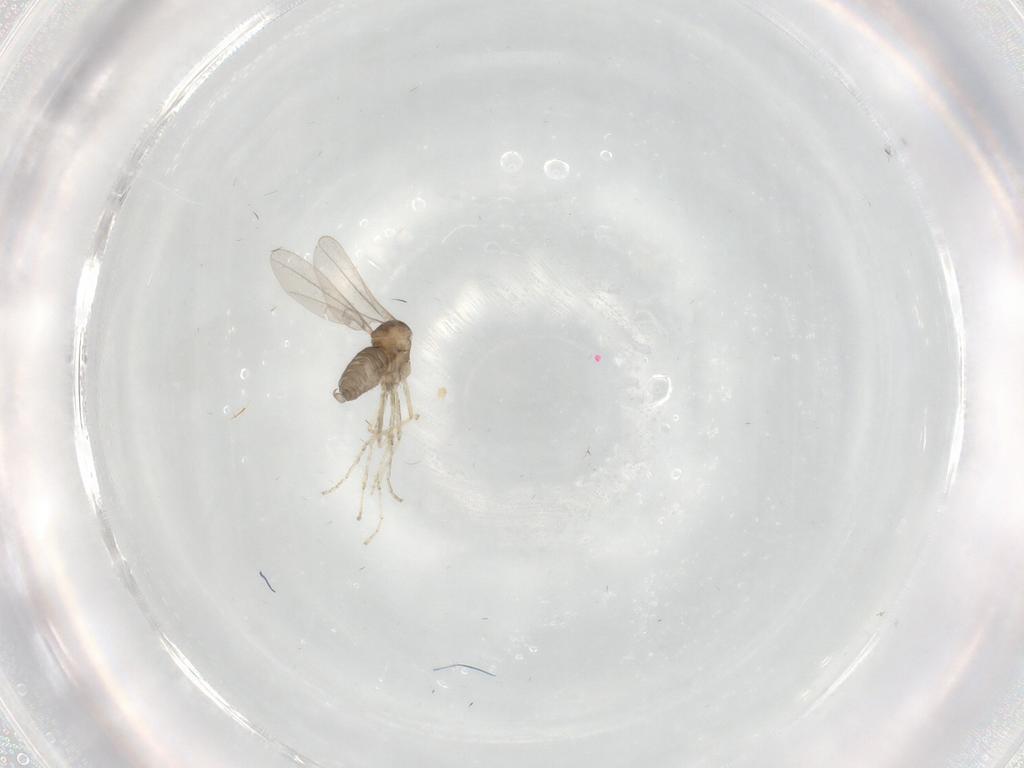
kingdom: Animalia
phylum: Arthropoda
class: Insecta
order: Diptera
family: Cecidomyiidae
